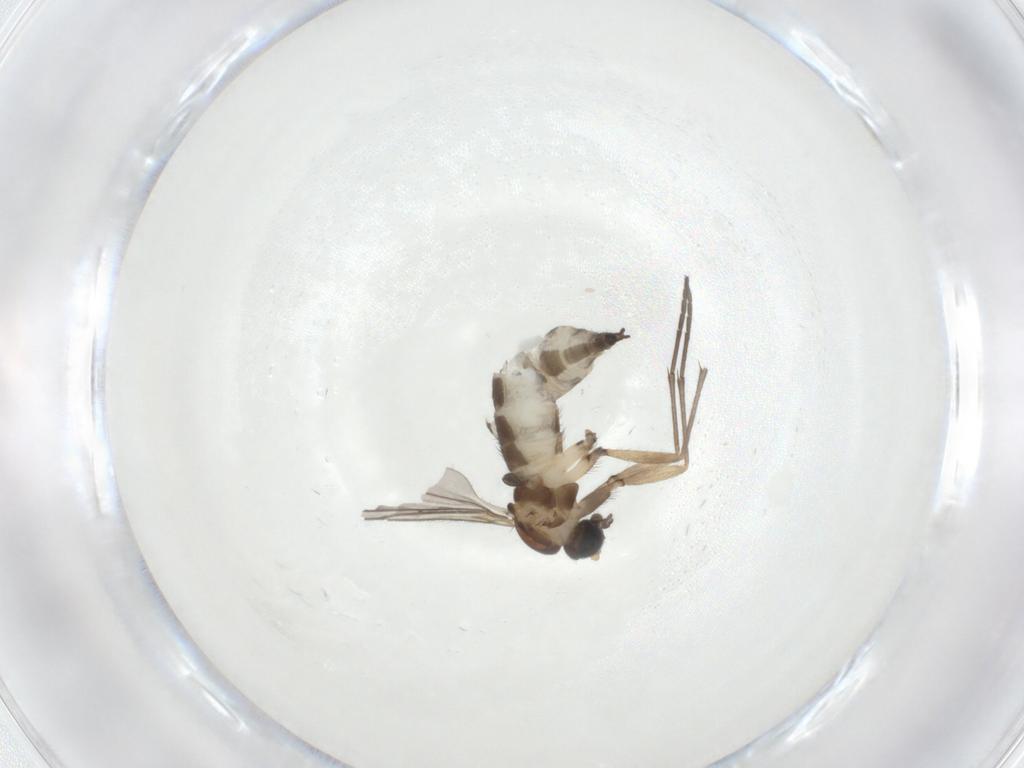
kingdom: Animalia
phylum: Arthropoda
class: Insecta
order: Diptera
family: Sciaridae
